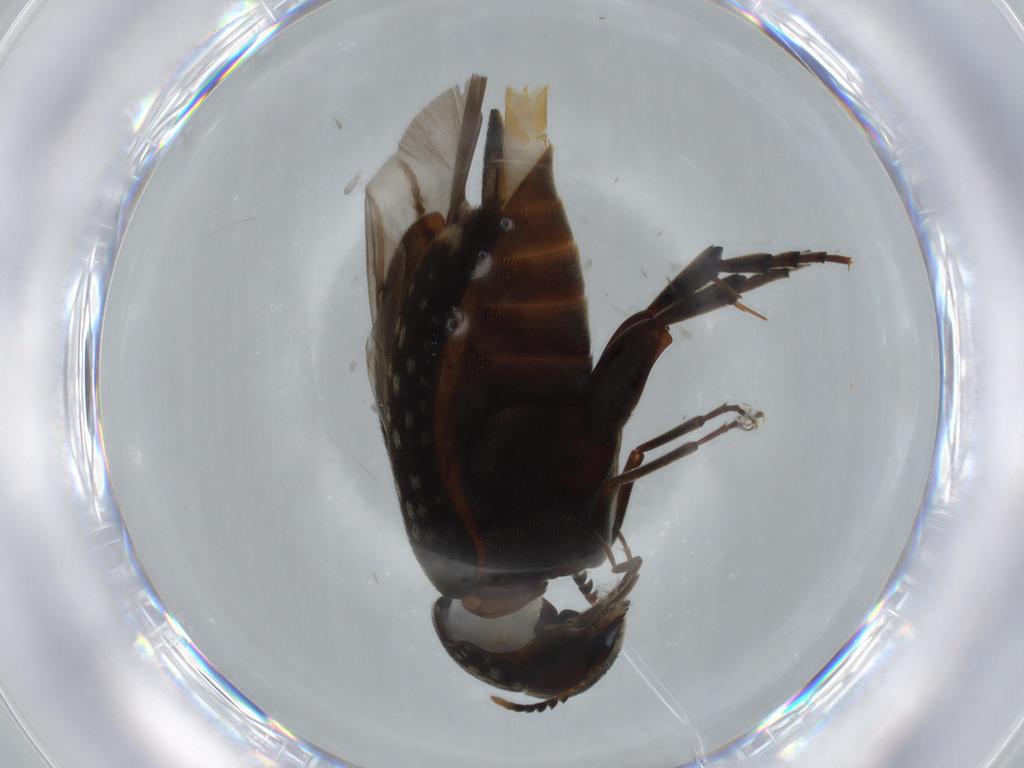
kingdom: Animalia
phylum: Arthropoda
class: Insecta
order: Coleoptera
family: Mordellidae
